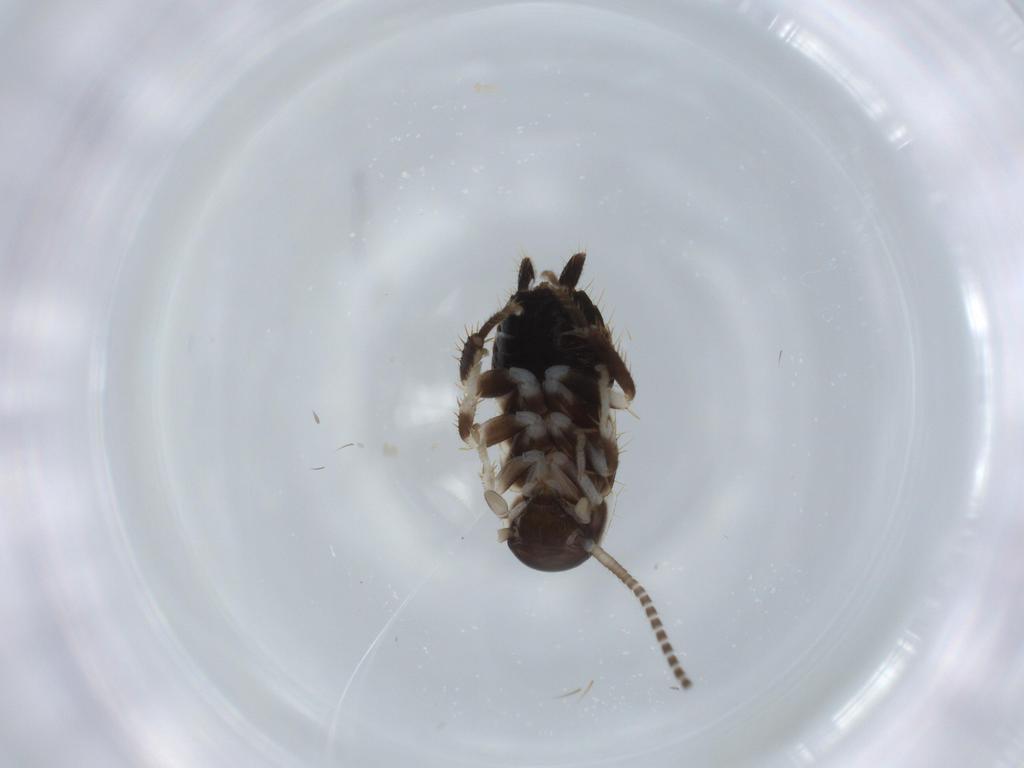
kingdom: Animalia
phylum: Arthropoda
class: Insecta
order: Blattodea
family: Ectobiidae
